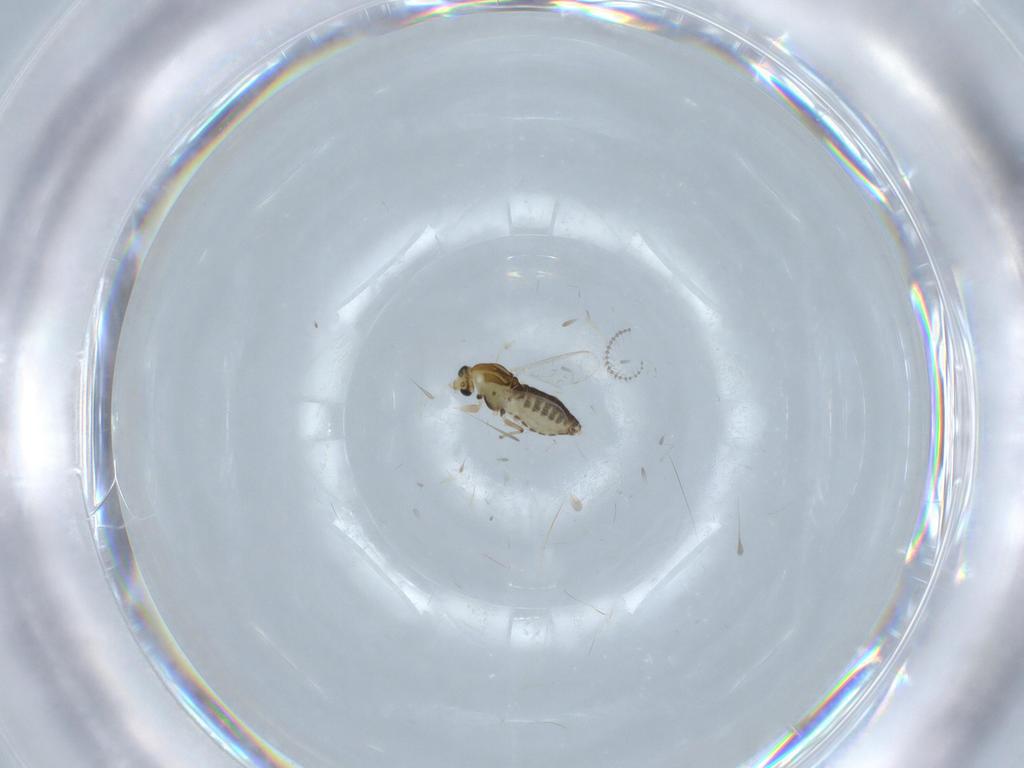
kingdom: Animalia
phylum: Arthropoda
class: Insecta
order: Diptera
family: Chironomidae
